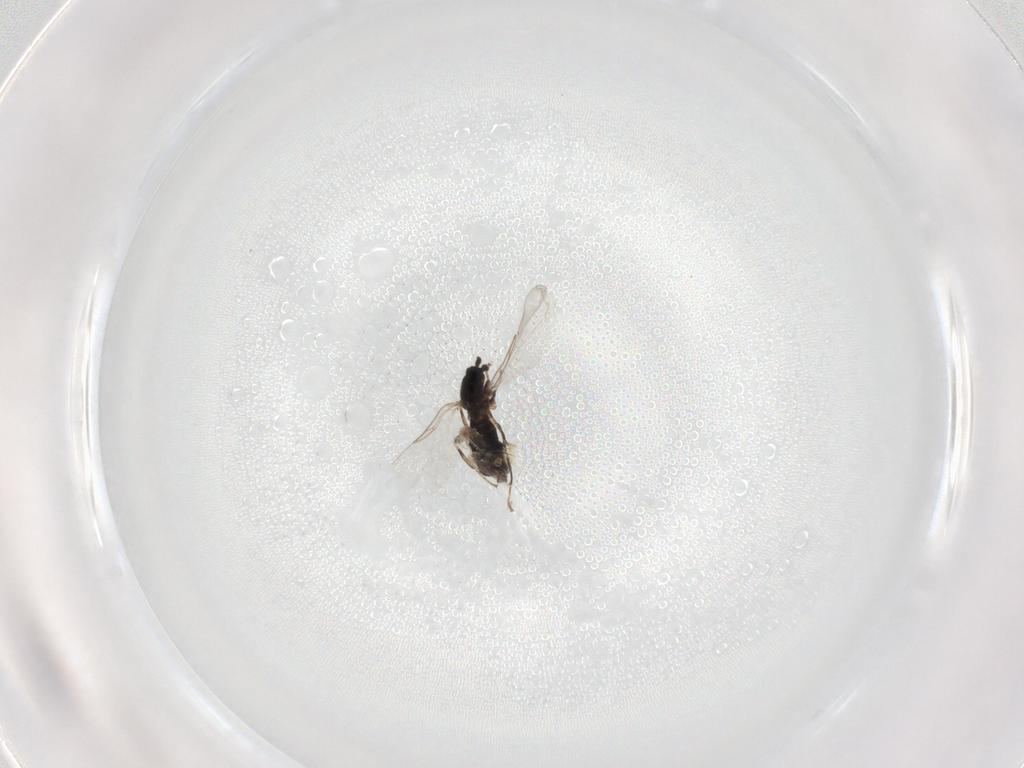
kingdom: Animalia
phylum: Arthropoda
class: Insecta
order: Diptera
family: Scatopsidae
